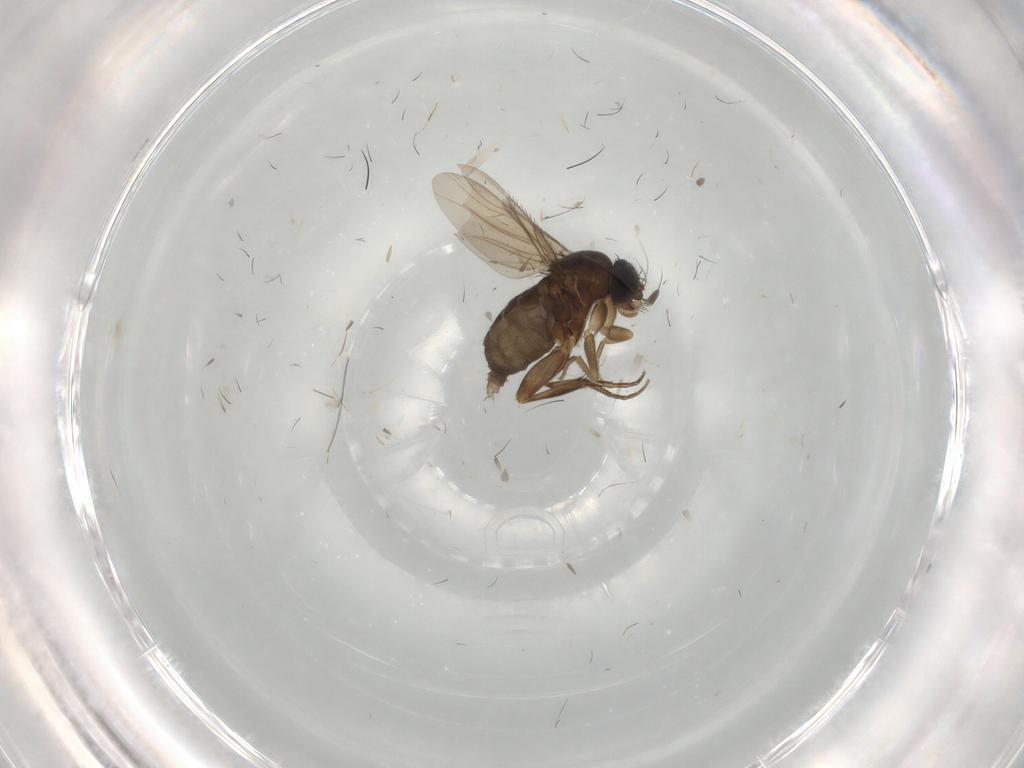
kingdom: Animalia
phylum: Arthropoda
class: Insecta
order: Diptera
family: Phoridae
